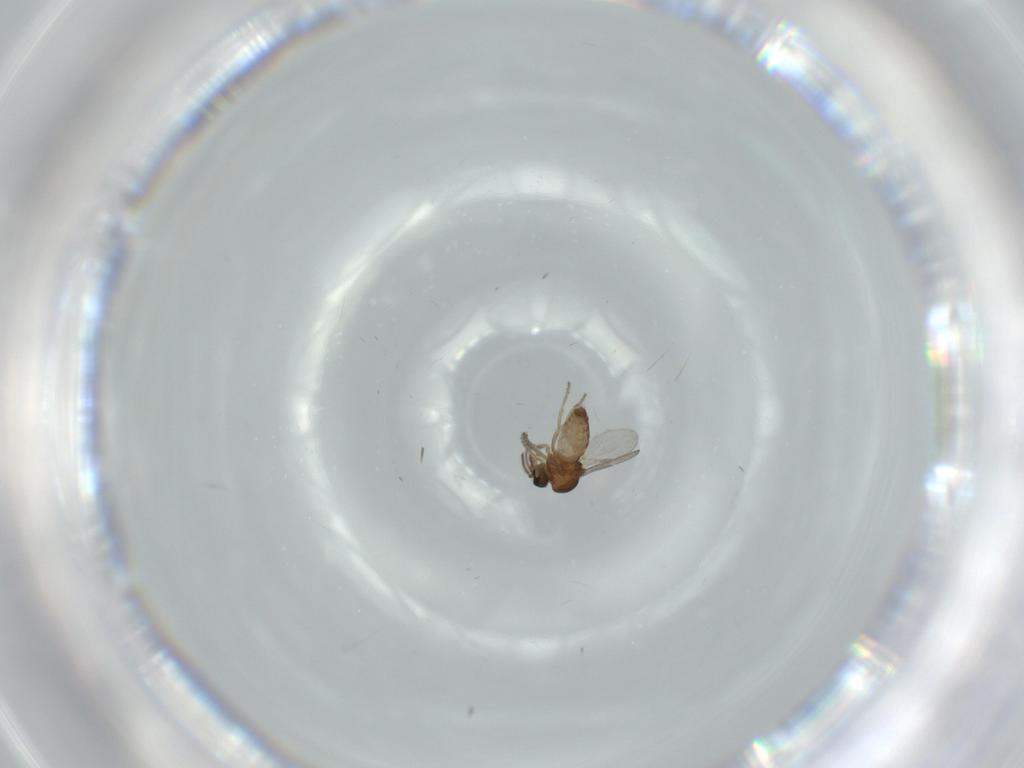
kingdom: Animalia
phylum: Arthropoda
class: Insecta
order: Diptera
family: Ceratopogonidae
